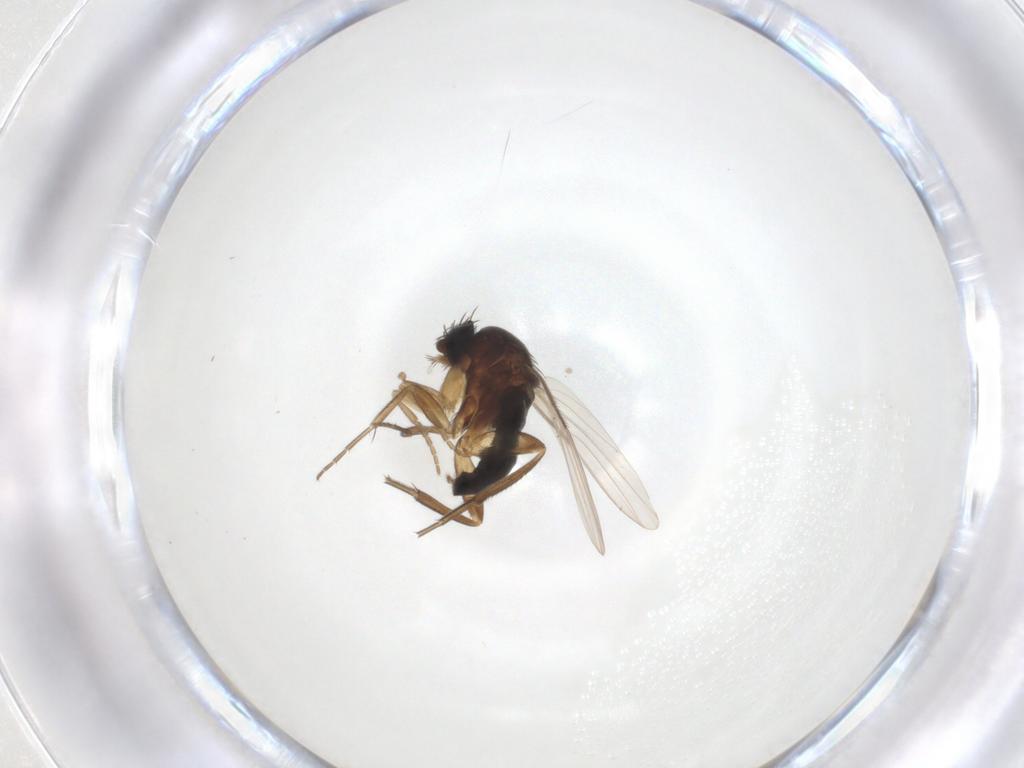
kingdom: Animalia
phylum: Arthropoda
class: Insecta
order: Diptera
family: Phoridae
